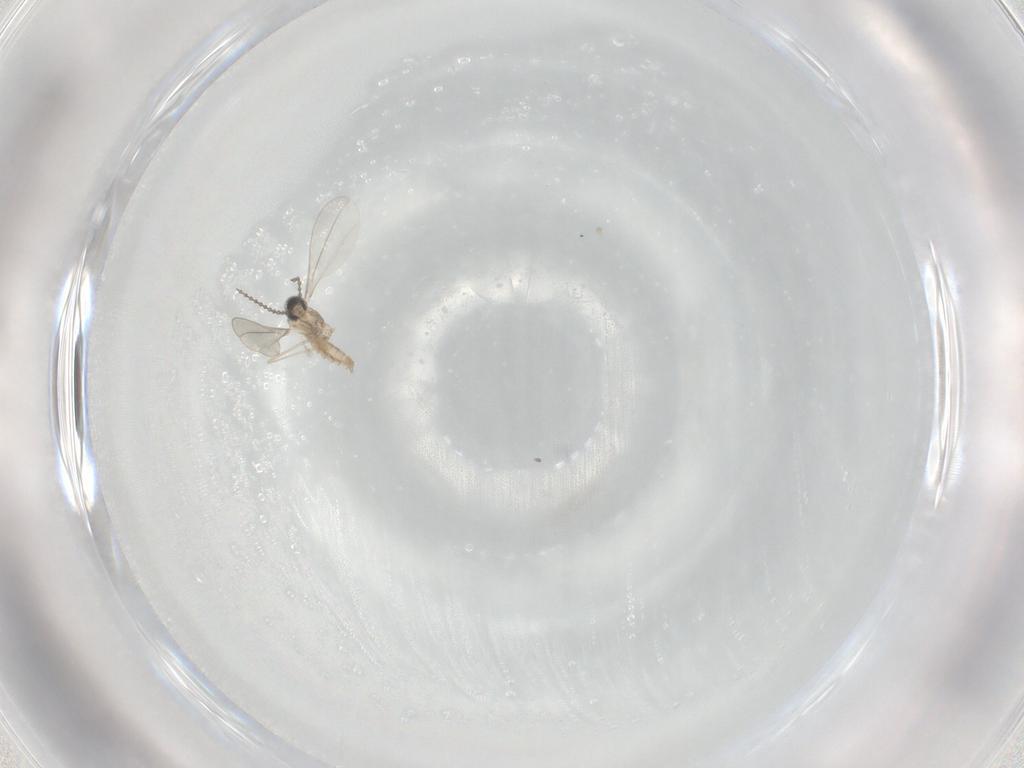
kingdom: Animalia
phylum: Arthropoda
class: Insecta
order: Diptera
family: Cecidomyiidae
